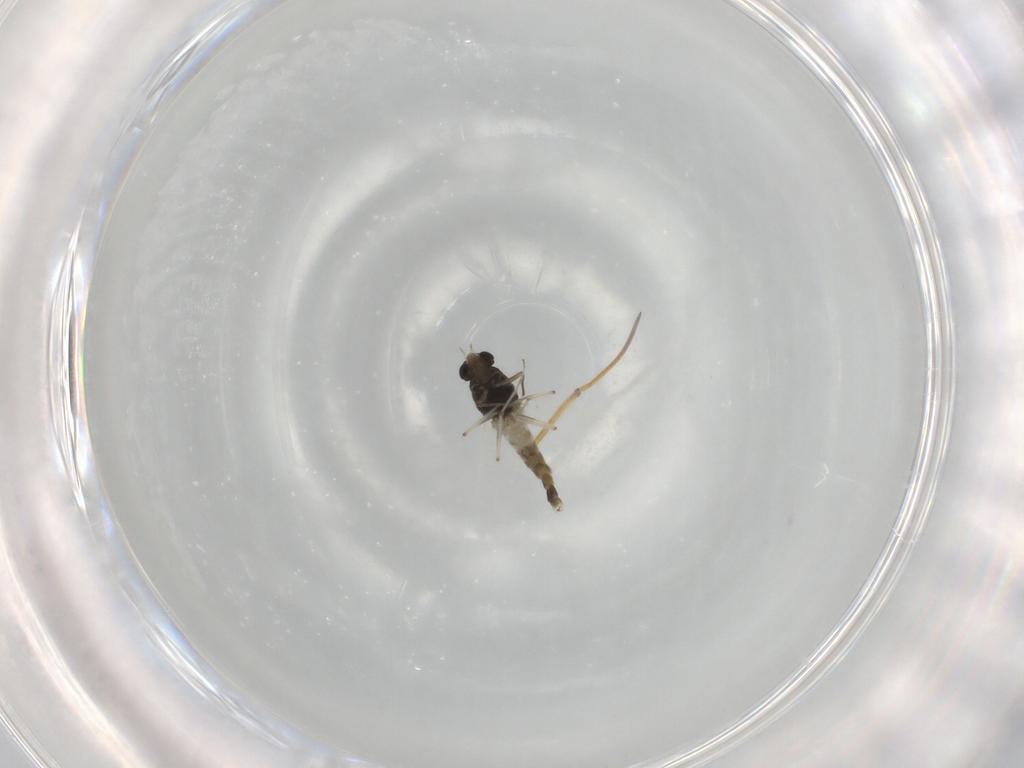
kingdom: Animalia
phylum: Arthropoda
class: Insecta
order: Diptera
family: Chironomidae
